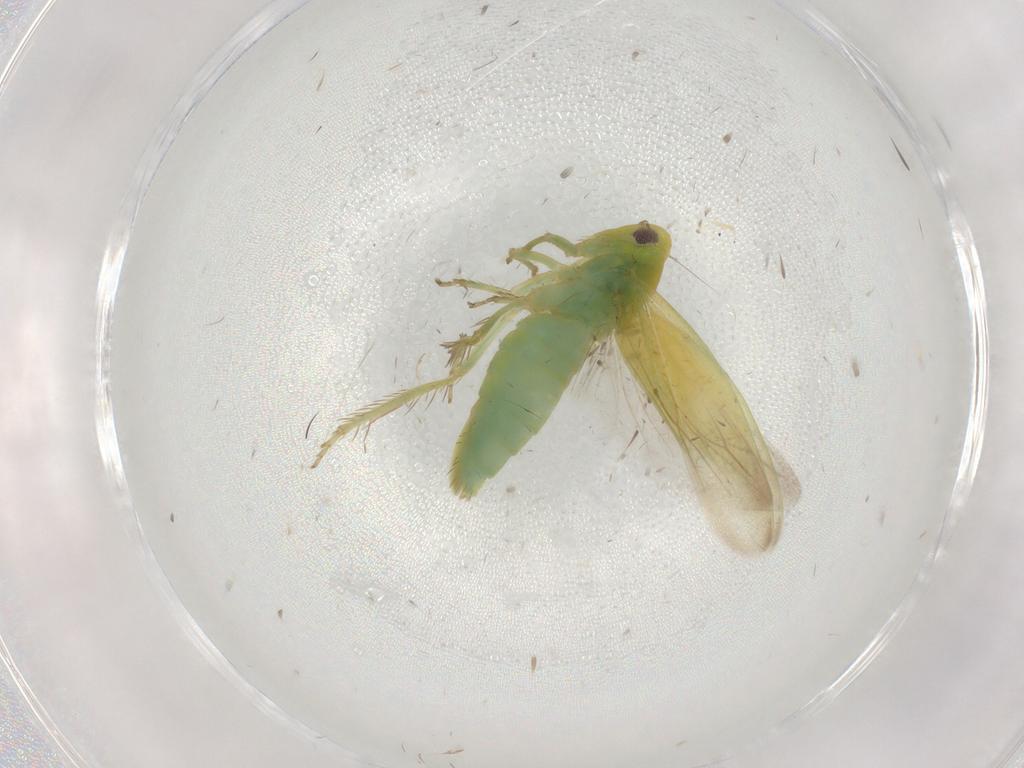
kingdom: Animalia
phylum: Arthropoda
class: Insecta
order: Hemiptera
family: Cicadellidae
